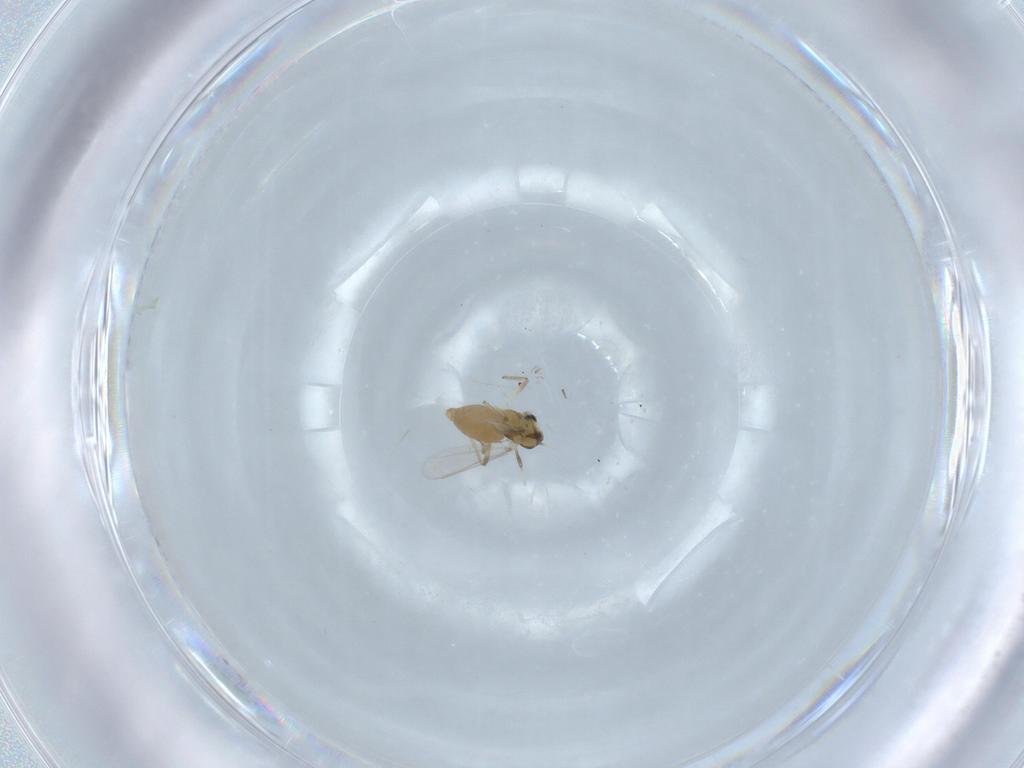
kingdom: Animalia
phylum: Arthropoda
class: Insecta
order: Diptera
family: Chironomidae
